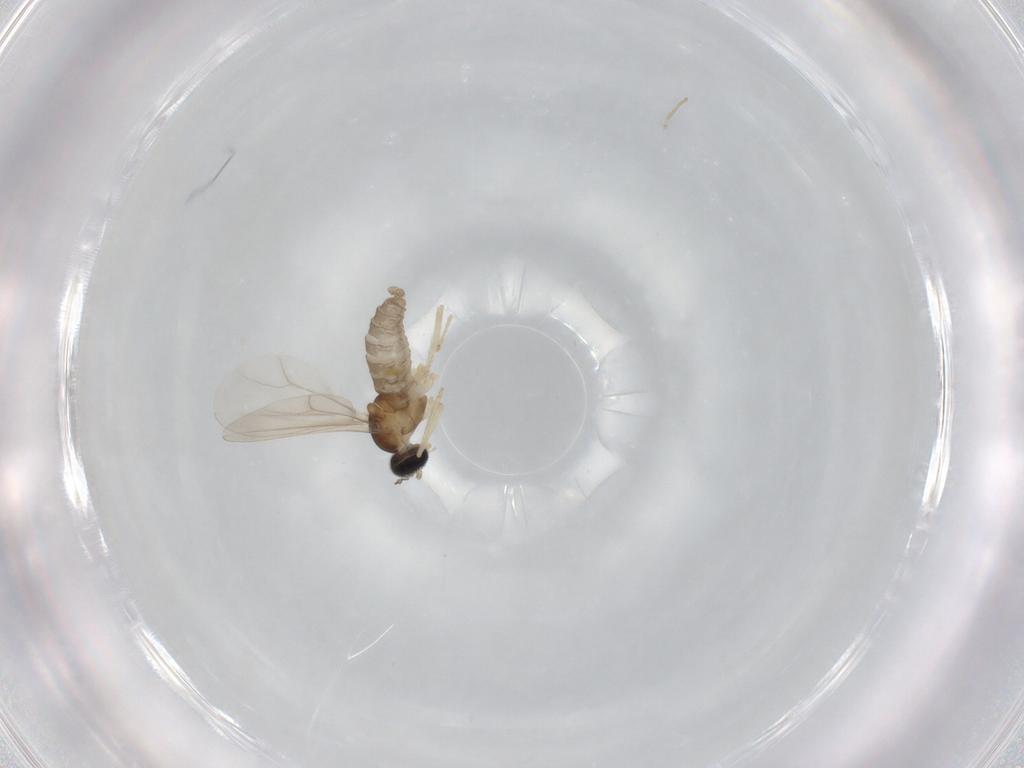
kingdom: Animalia
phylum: Arthropoda
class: Insecta
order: Diptera
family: Cecidomyiidae
